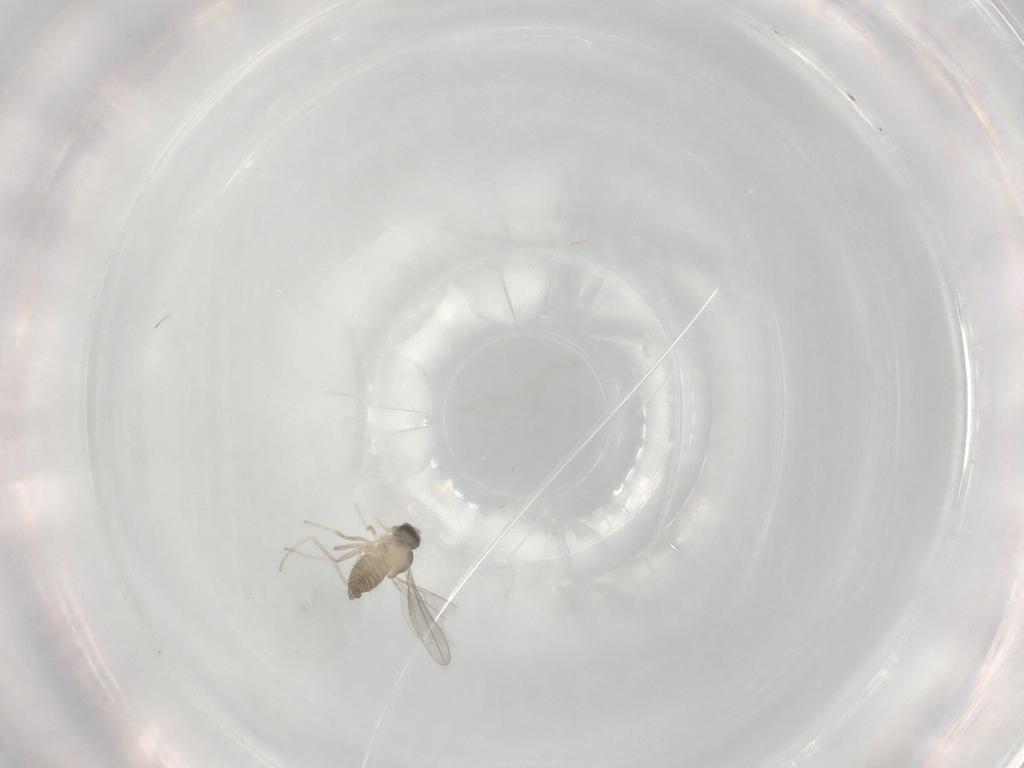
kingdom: Animalia
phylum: Arthropoda
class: Insecta
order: Diptera
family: Cecidomyiidae
